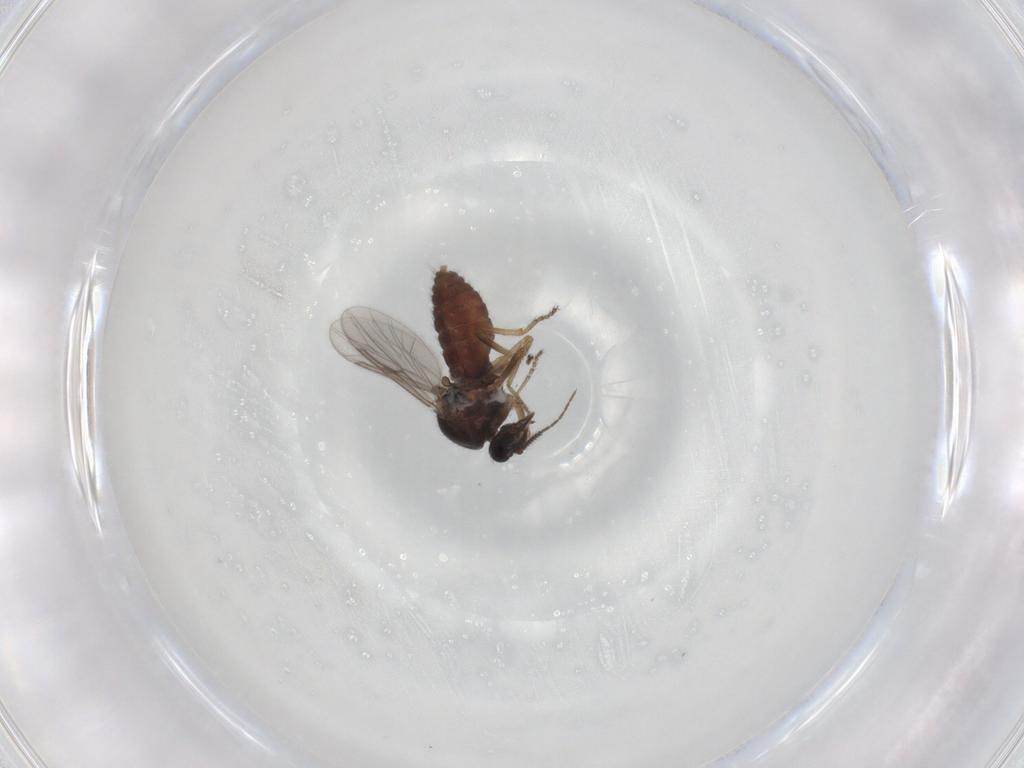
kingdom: Animalia
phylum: Arthropoda
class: Insecta
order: Diptera
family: Ceratopogonidae
